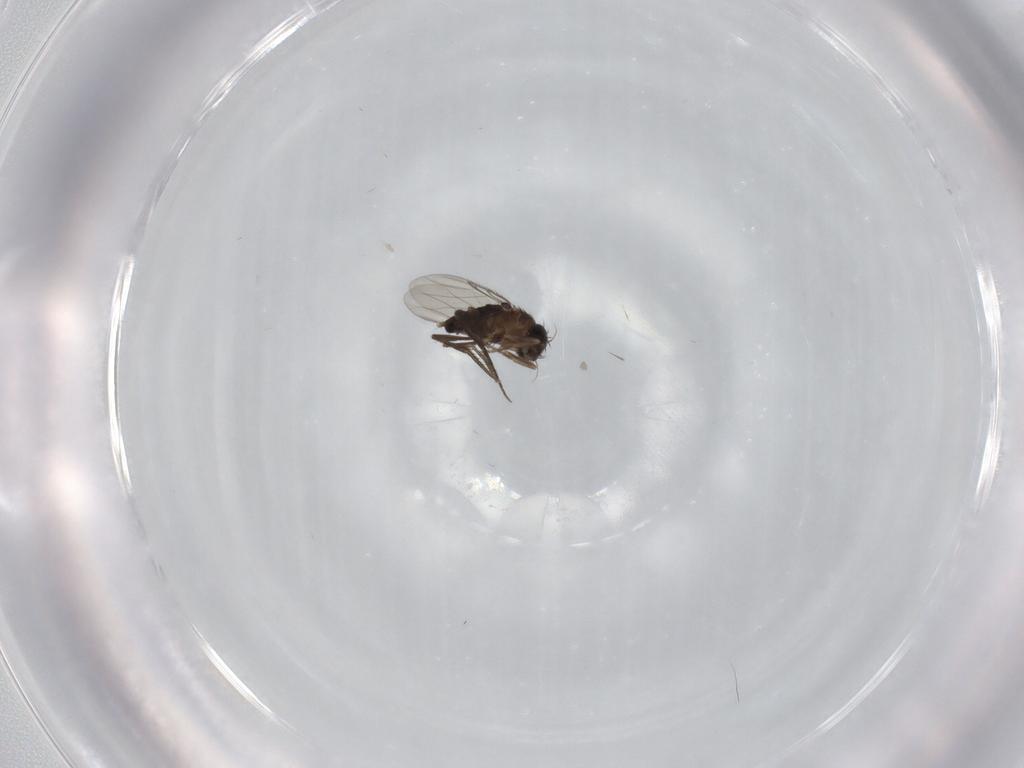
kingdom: Animalia
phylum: Arthropoda
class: Insecta
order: Diptera
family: Phoridae
